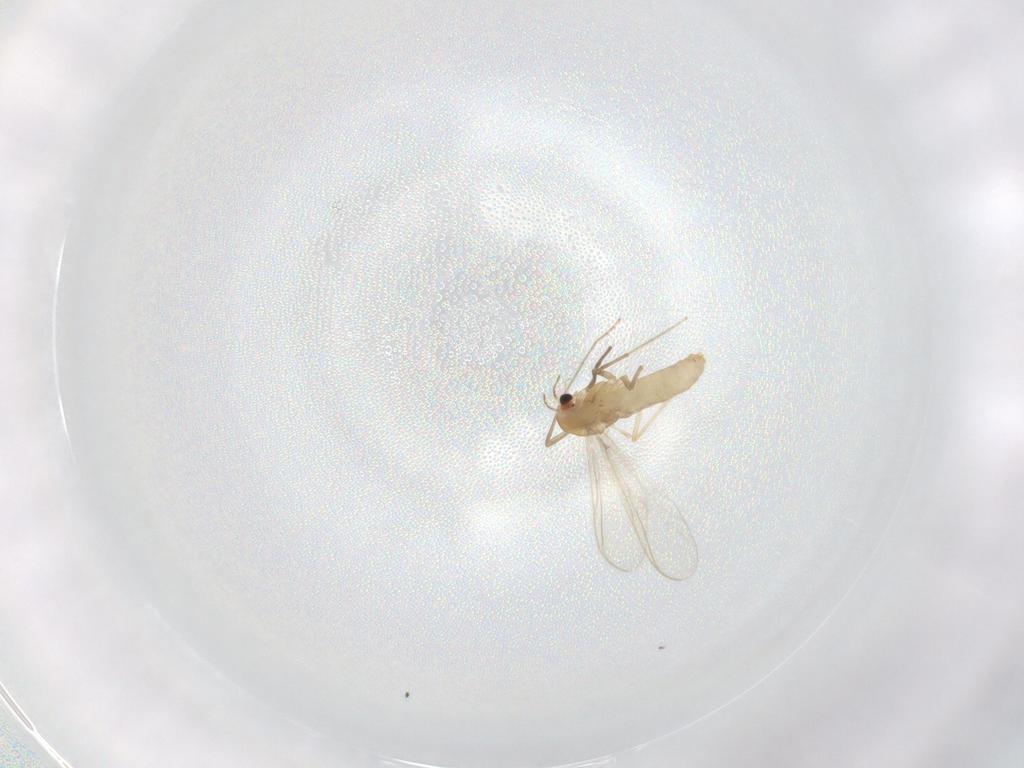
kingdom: Animalia
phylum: Arthropoda
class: Insecta
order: Diptera
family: Chironomidae
